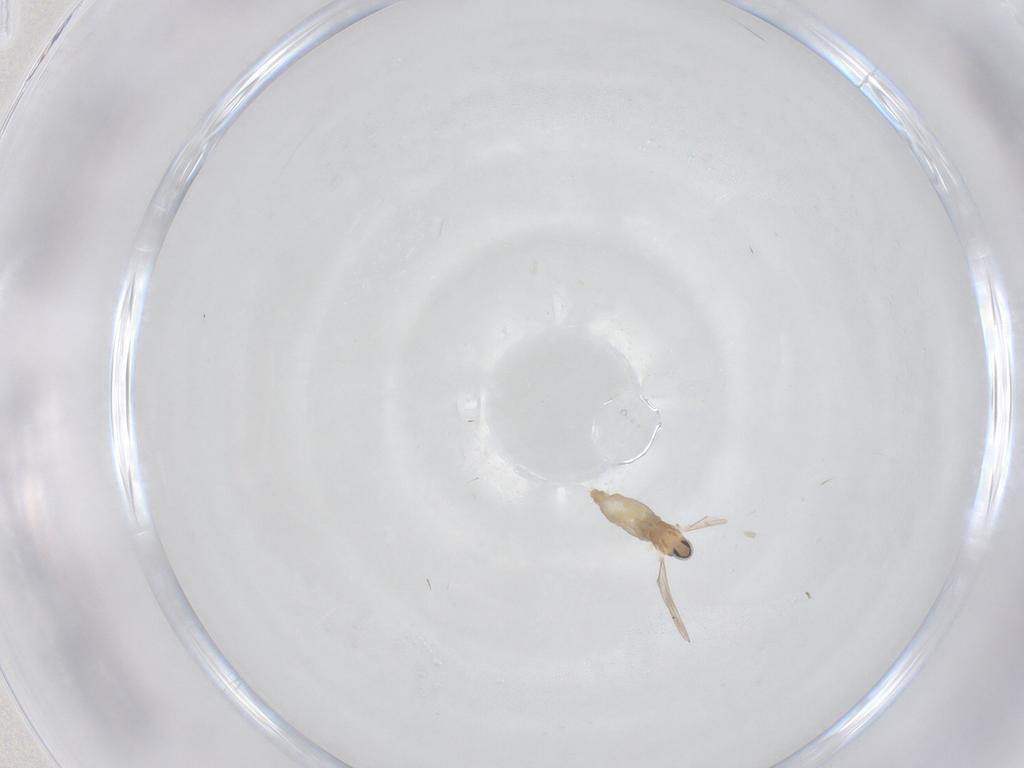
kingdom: Animalia
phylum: Arthropoda
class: Insecta
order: Diptera
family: Cecidomyiidae
